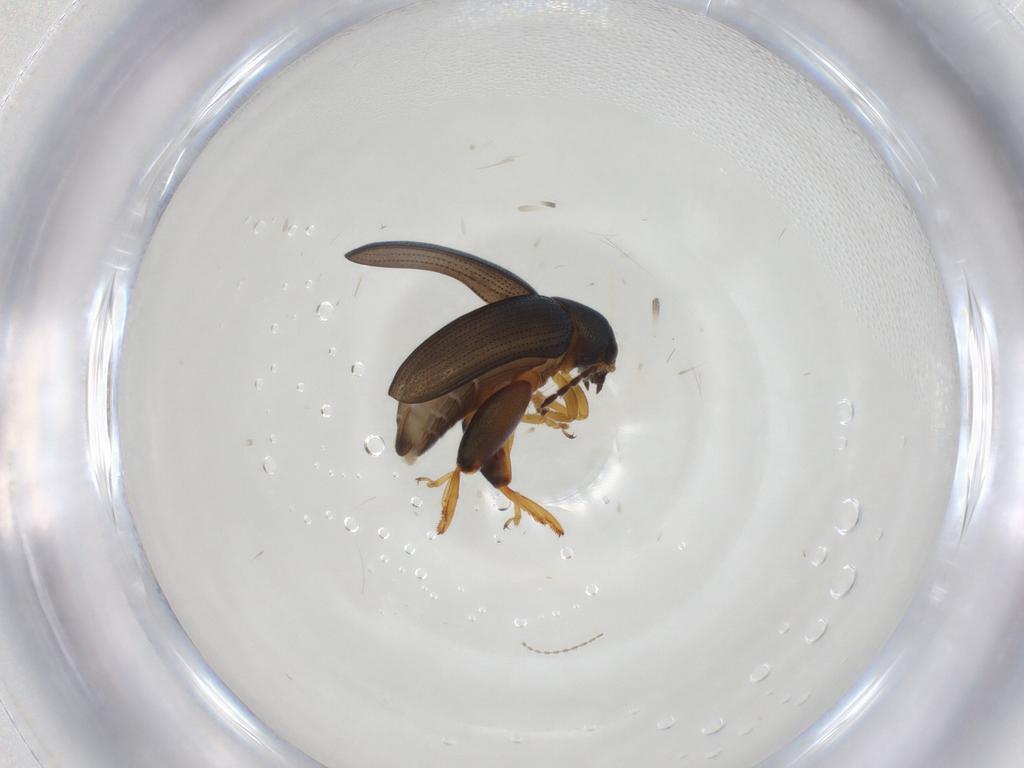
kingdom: Animalia
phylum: Arthropoda
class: Insecta
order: Coleoptera
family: Chrysomelidae
